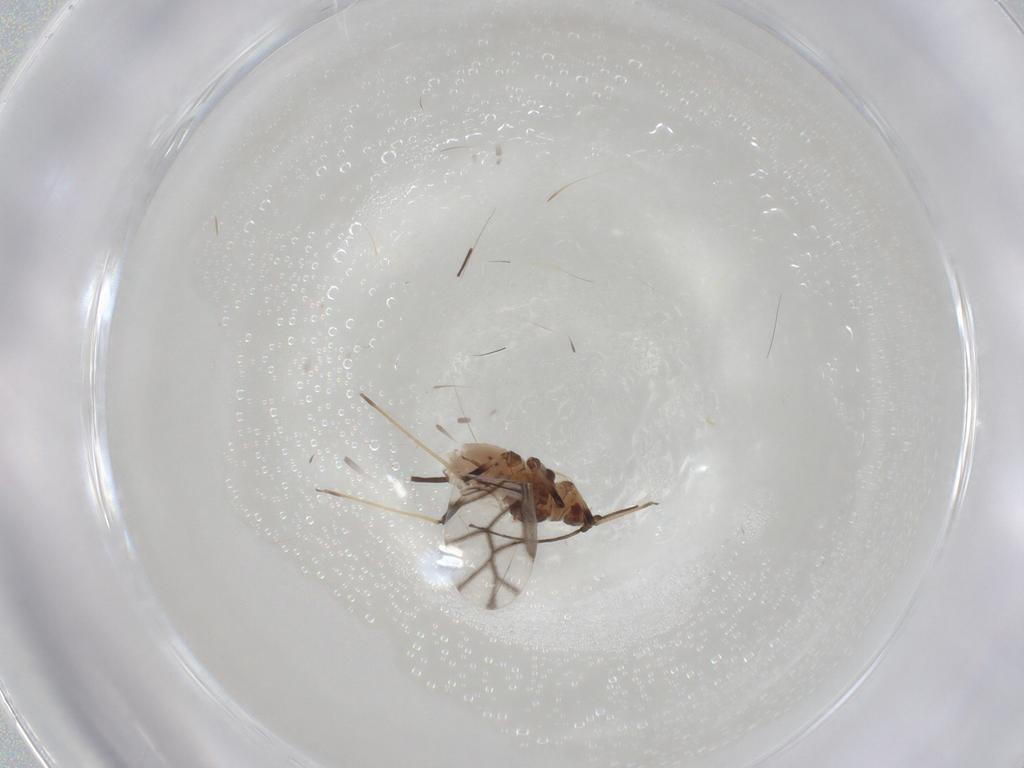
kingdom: Animalia
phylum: Arthropoda
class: Insecta
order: Hemiptera
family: Aphididae
